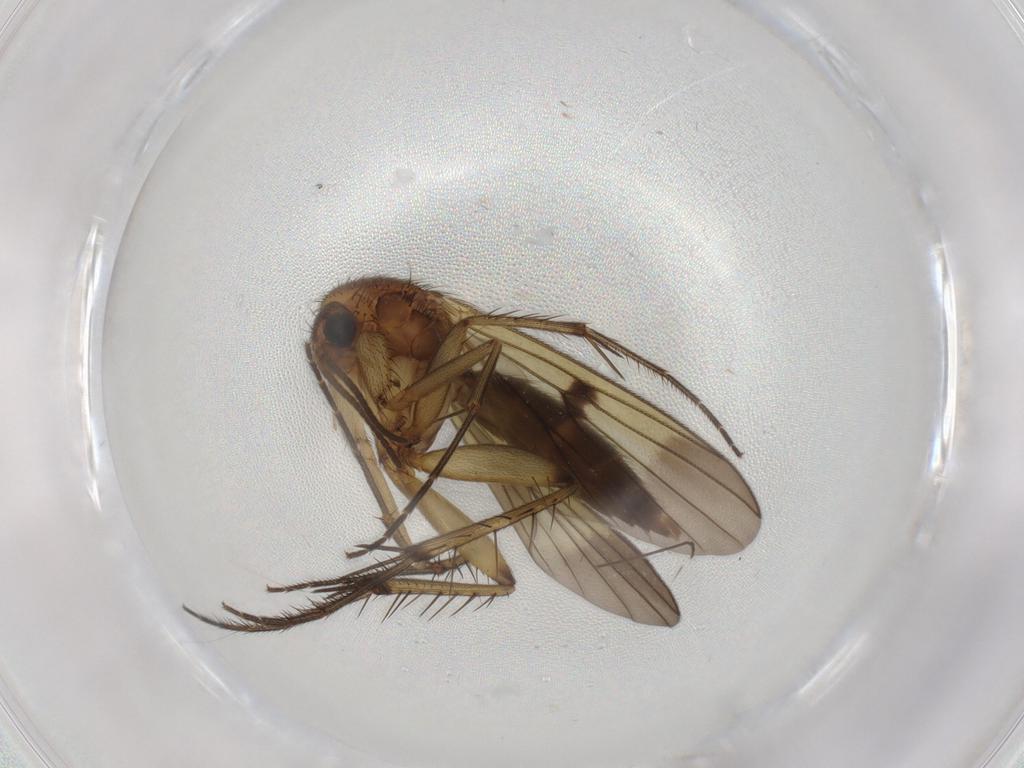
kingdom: Animalia
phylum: Arthropoda
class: Insecta
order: Diptera
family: Mycetophilidae
